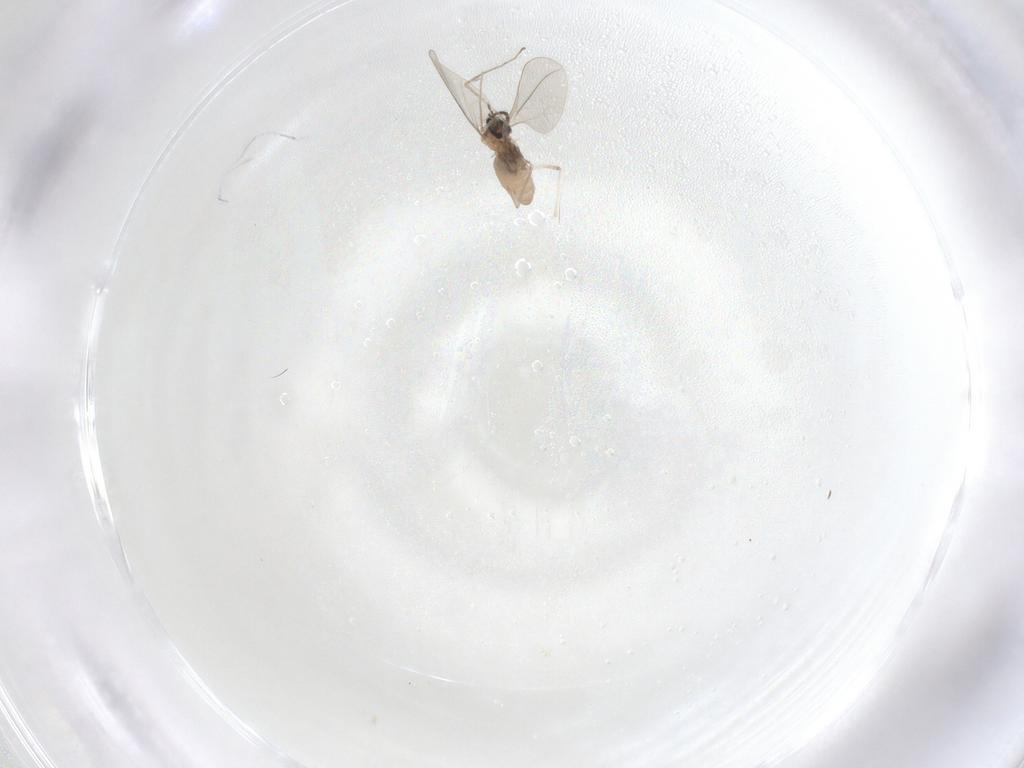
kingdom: Animalia
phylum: Arthropoda
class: Insecta
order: Diptera
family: Cecidomyiidae
